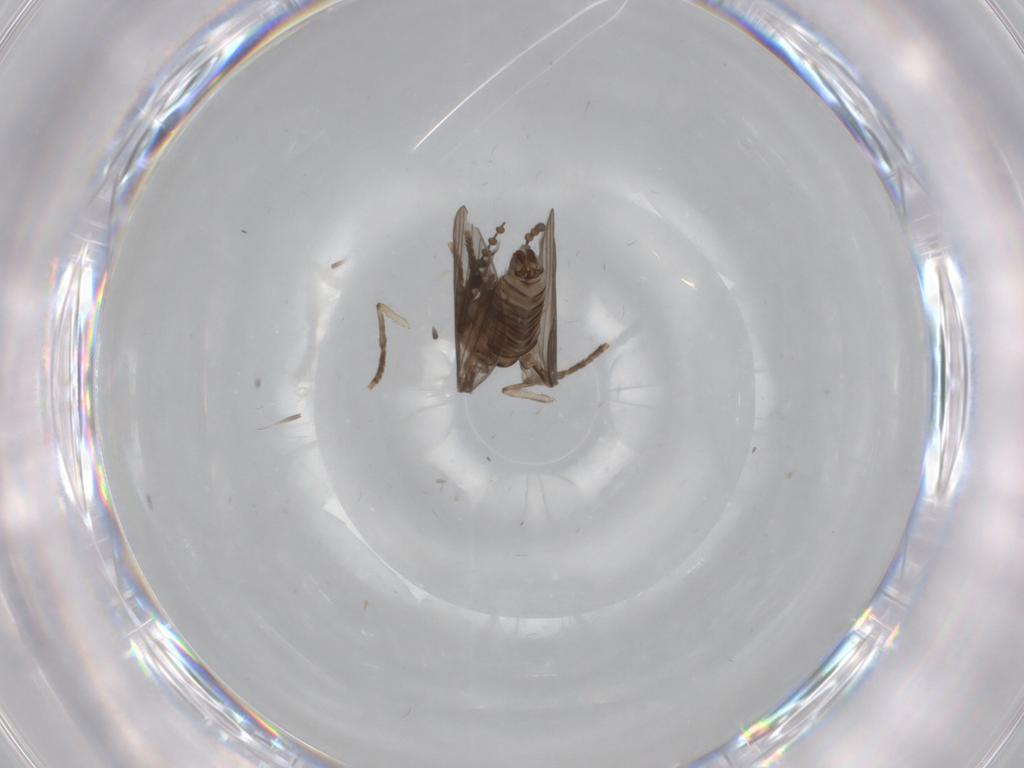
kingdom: Animalia
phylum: Arthropoda
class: Insecta
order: Diptera
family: Psychodidae
